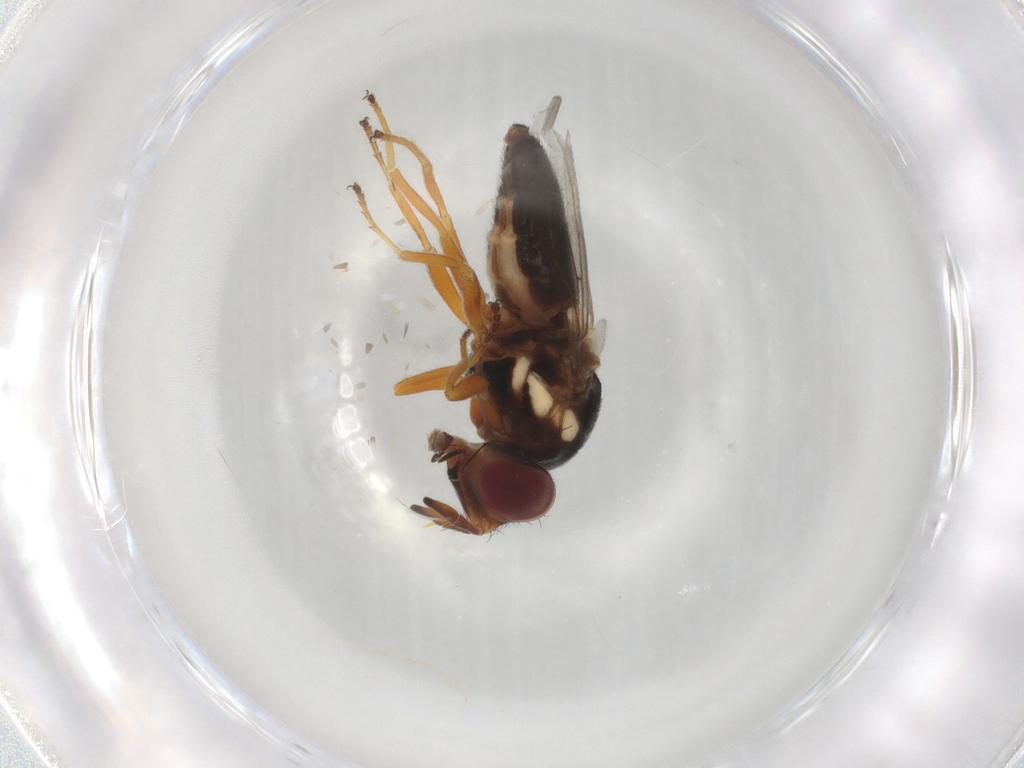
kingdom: Animalia
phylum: Arthropoda
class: Insecta
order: Diptera
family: Chloropidae
